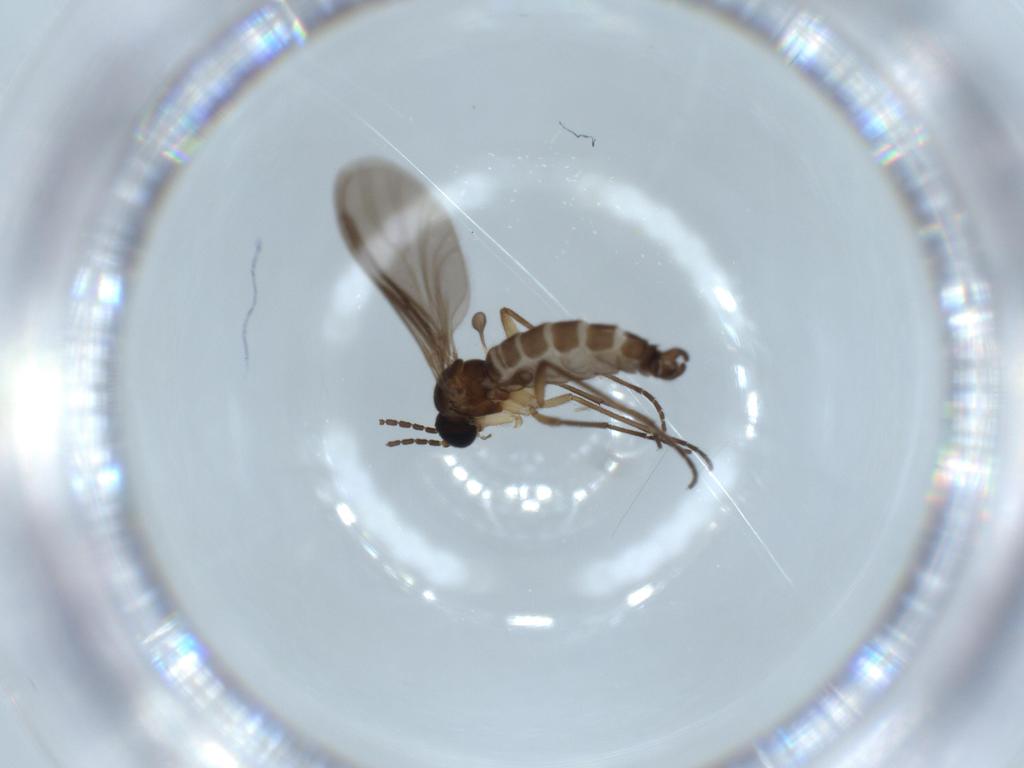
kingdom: Animalia
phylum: Arthropoda
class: Insecta
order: Diptera
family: Sciaridae
